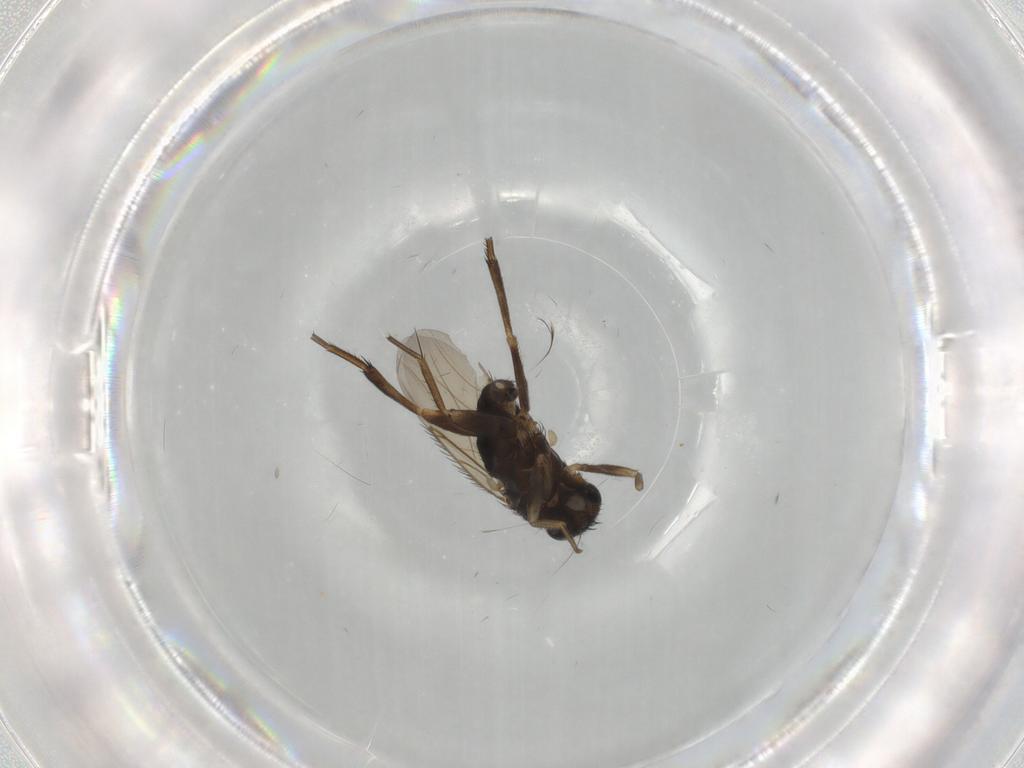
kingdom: Animalia
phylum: Arthropoda
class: Insecta
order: Diptera
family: Phoridae
